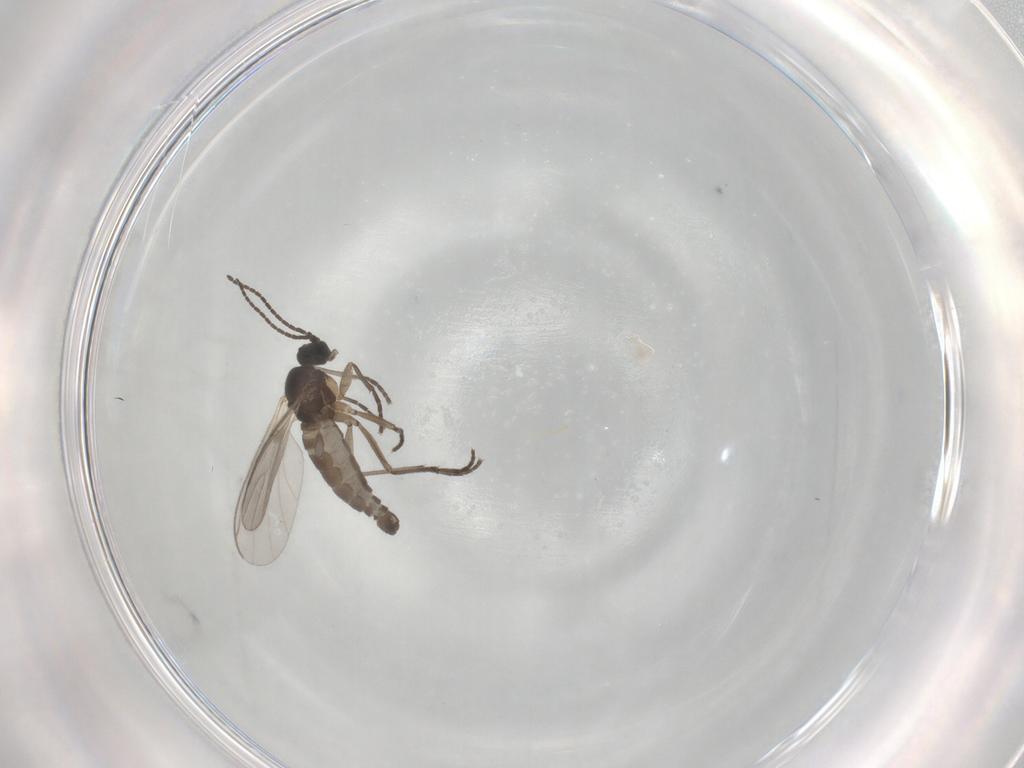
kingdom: Animalia
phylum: Arthropoda
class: Insecta
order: Diptera
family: Chironomidae
